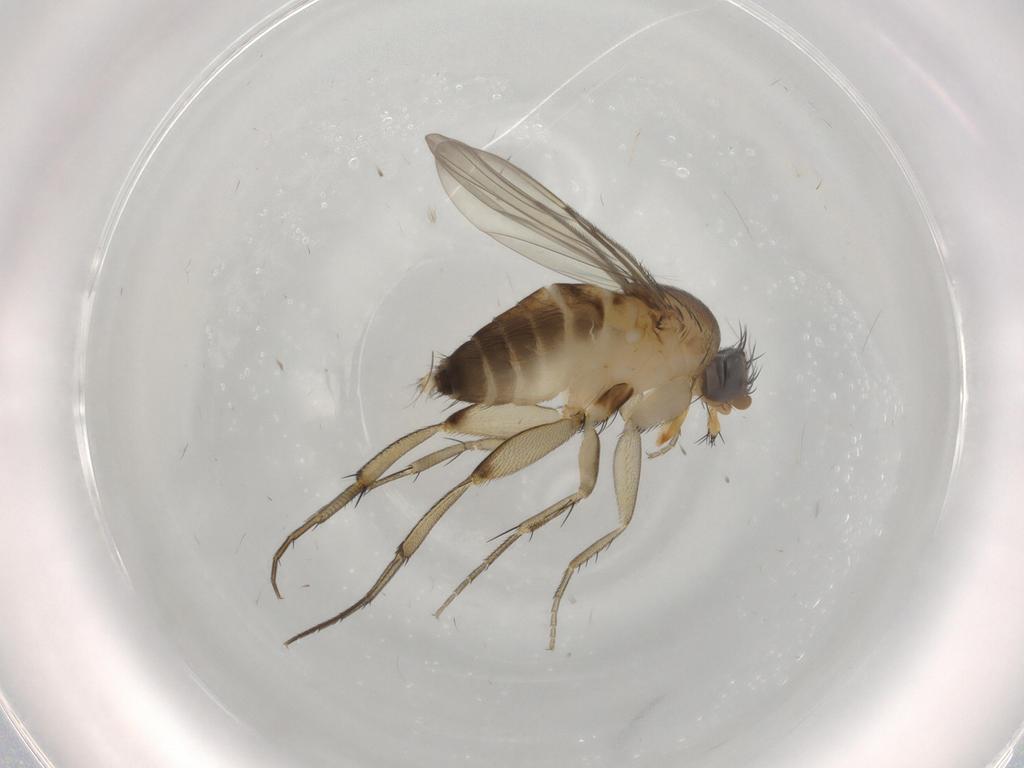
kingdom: Animalia
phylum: Arthropoda
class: Insecta
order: Diptera
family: Phoridae
